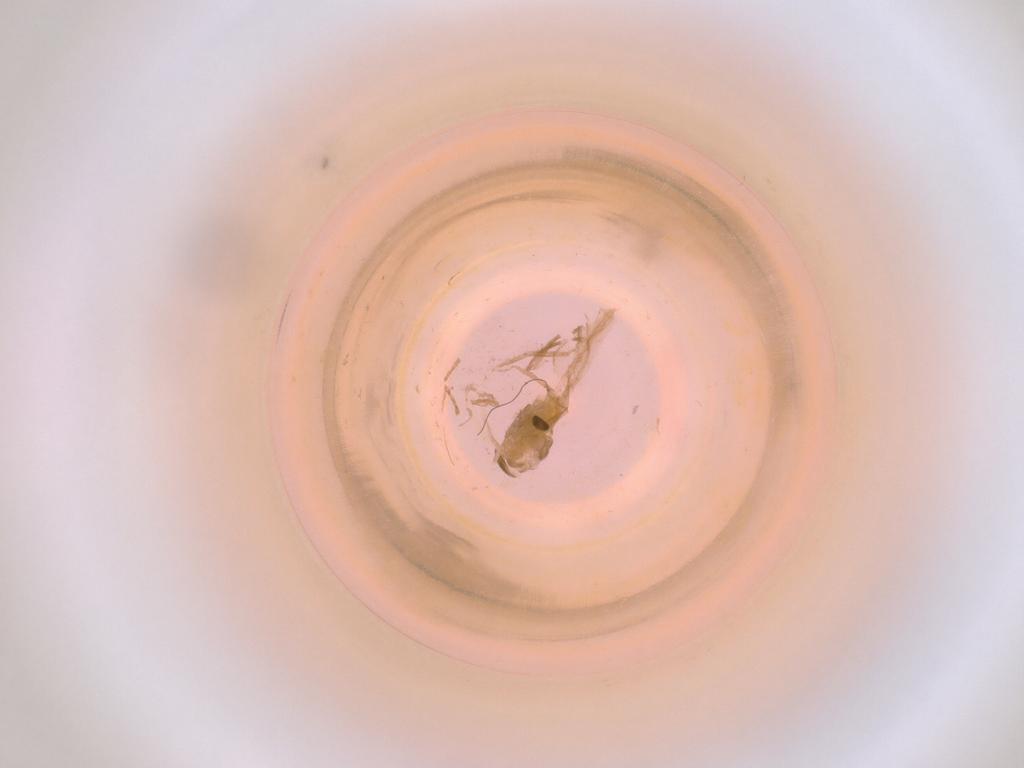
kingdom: Animalia
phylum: Arthropoda
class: Insecta
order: Diptera
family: Cecidomyiidae
